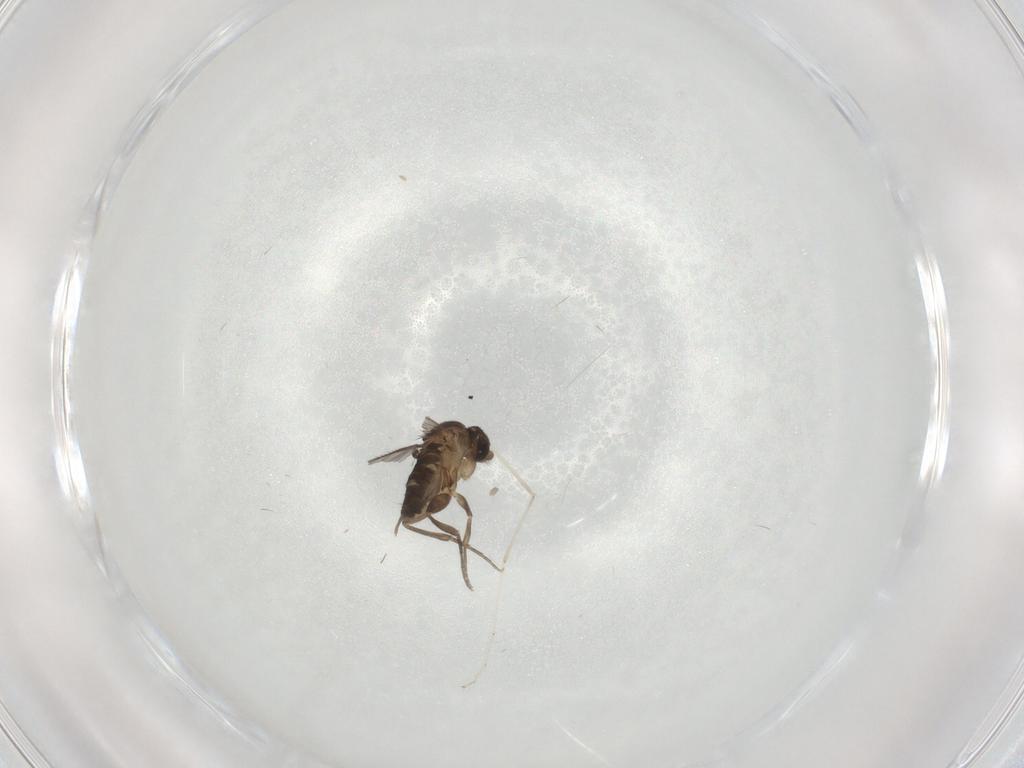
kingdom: Animalia
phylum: Arthropoda
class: Insecta
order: Diptera
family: Phoridae
